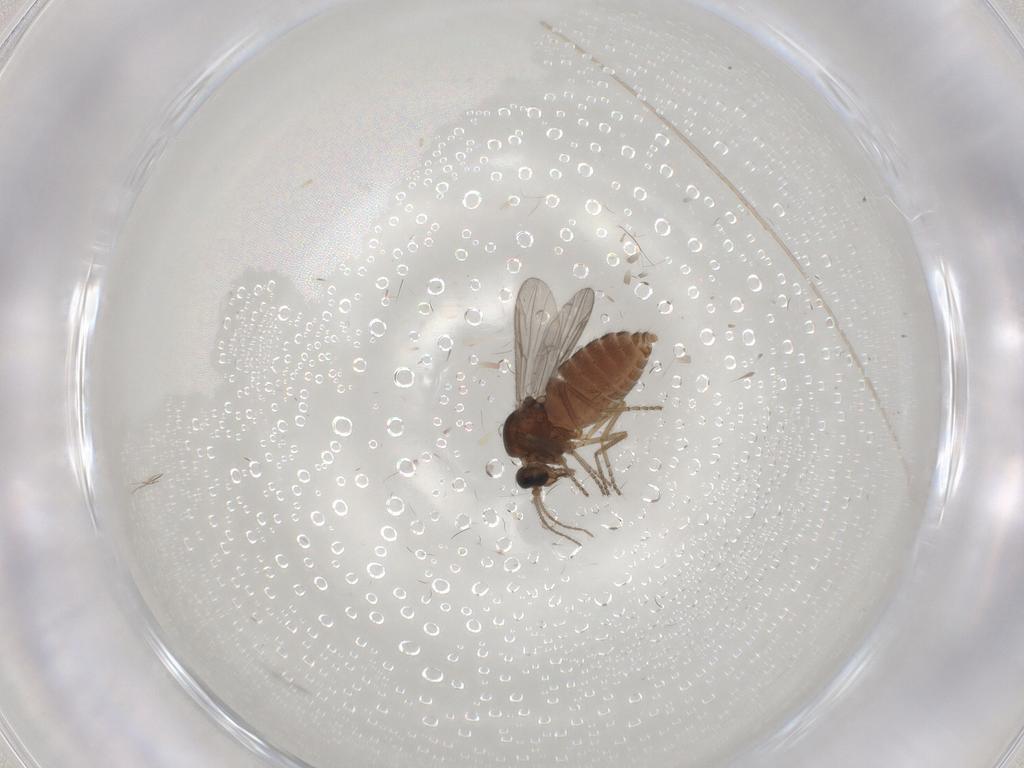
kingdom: Animalia
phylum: Arthropoda
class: Insecta
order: Diptera
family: Ceratopogonidae
